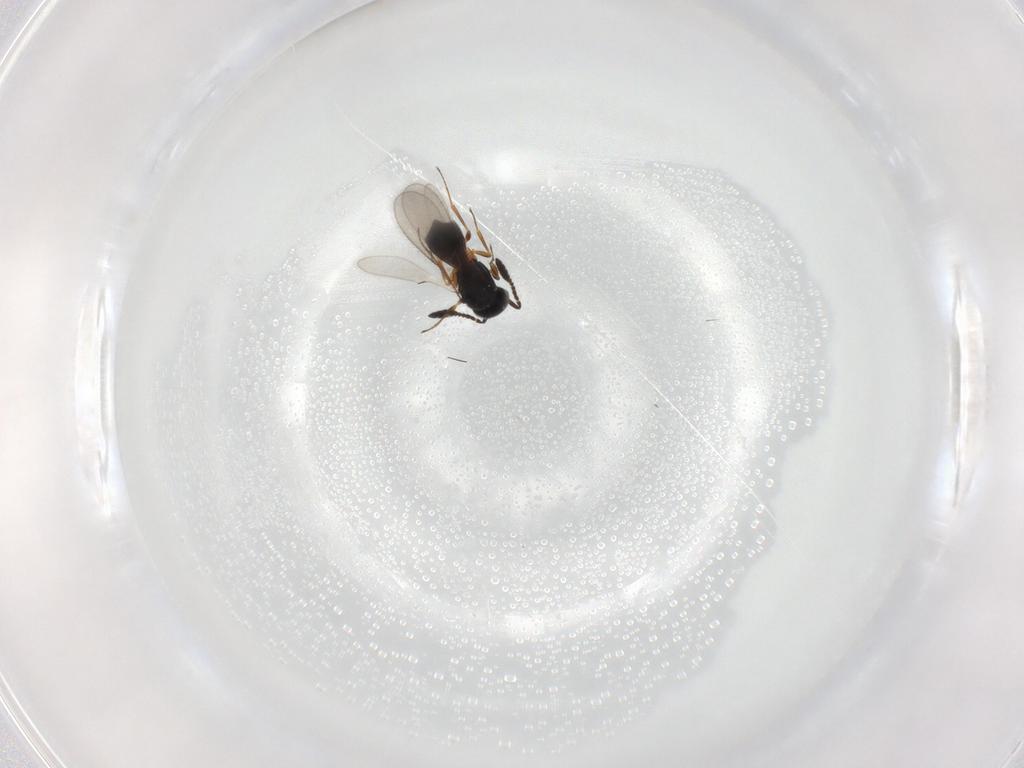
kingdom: Animalia
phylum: Arthropoda
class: Insecta
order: Hymenoptera
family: Scelionidae
